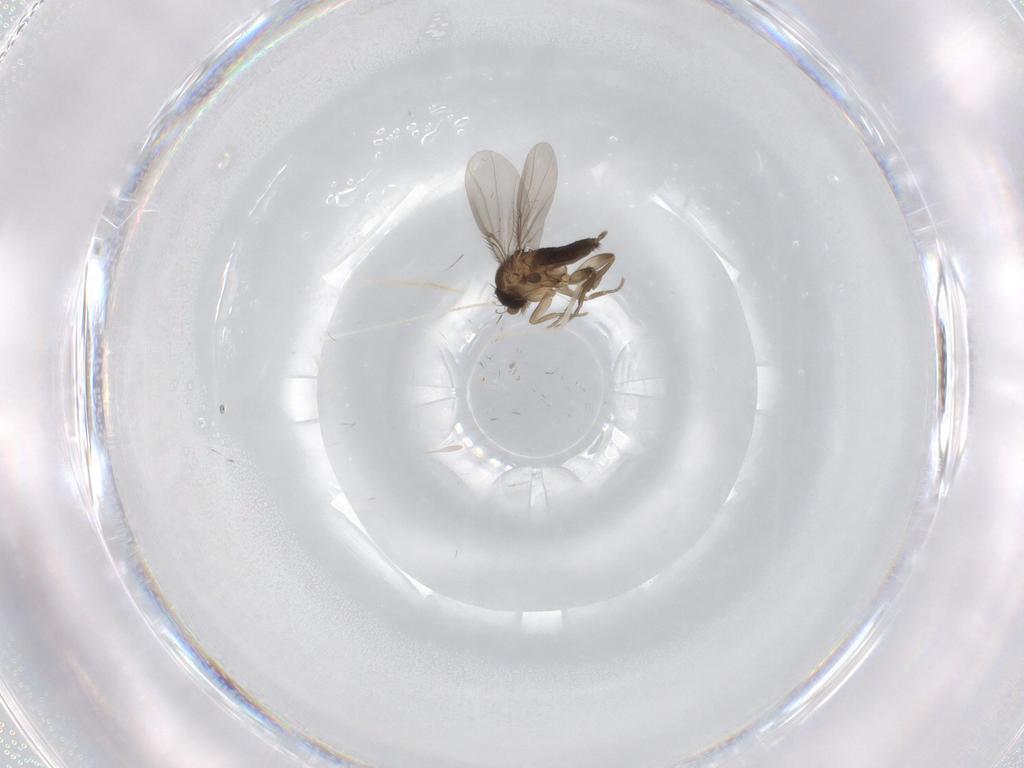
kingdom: Animalia
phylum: Arthropoda
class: Insecta
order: Diptera
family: Phoridae
